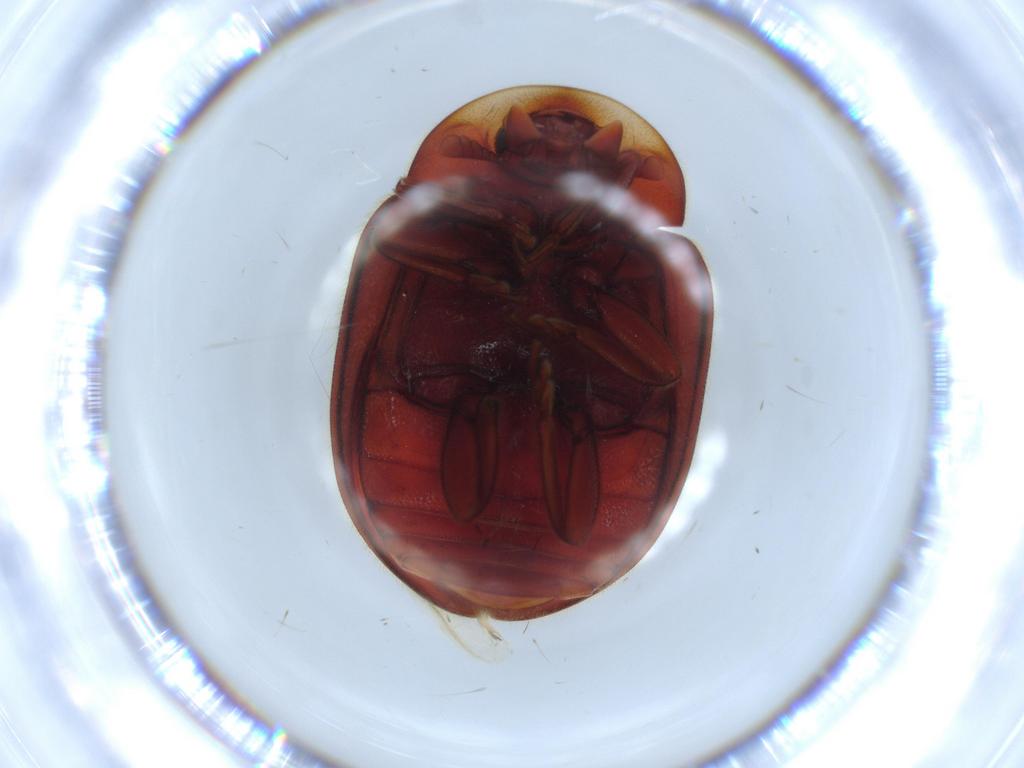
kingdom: Animalia
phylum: Arthropoda
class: Insecta
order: Coleoptera
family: Coccinellidae
